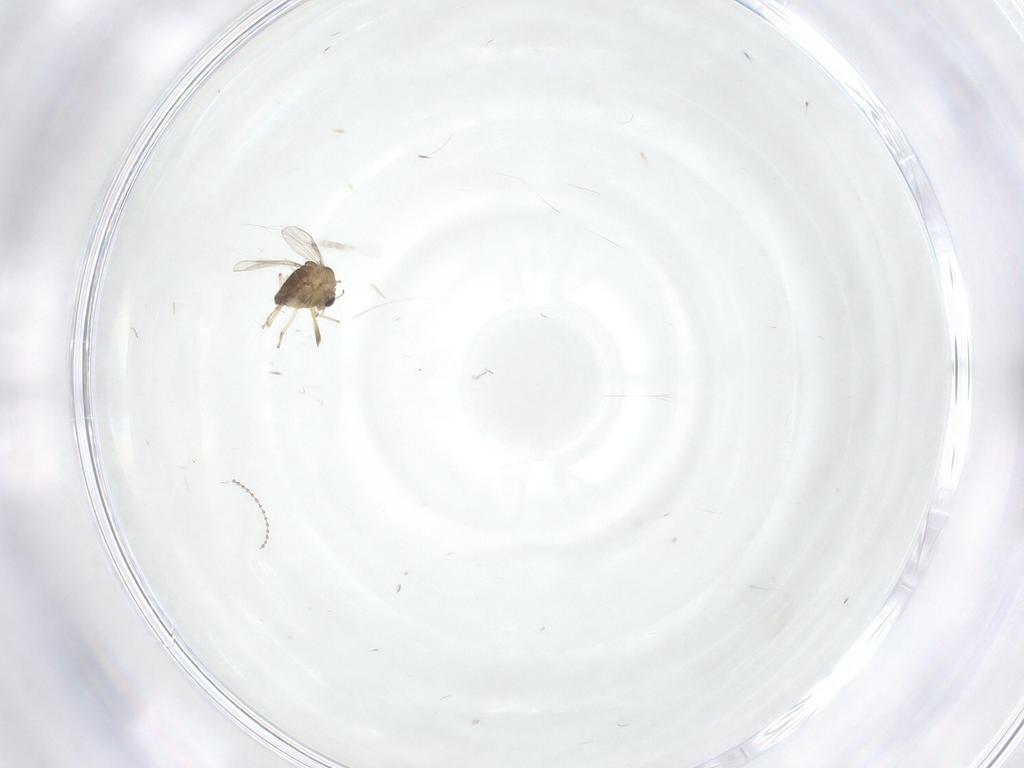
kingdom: Animalia
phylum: Arthropoda
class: Insecta
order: Diptera
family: Chironomidae
